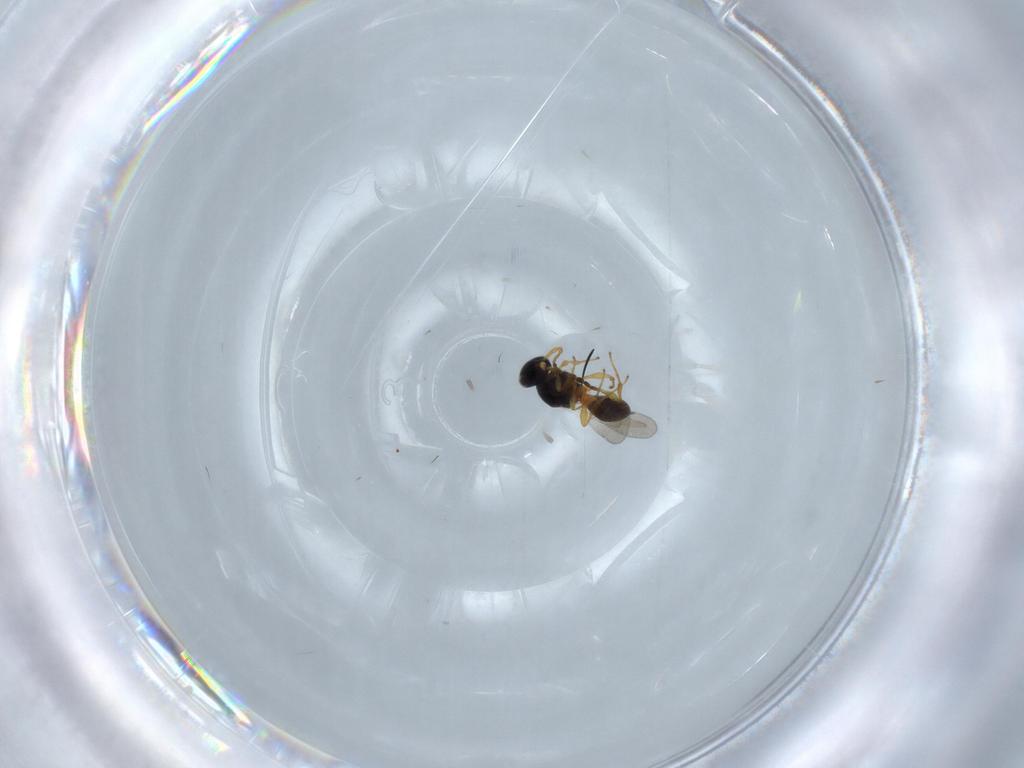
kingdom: Animalia
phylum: Arthropoda
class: Insecta
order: Hymenoptera
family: Platygastridae
